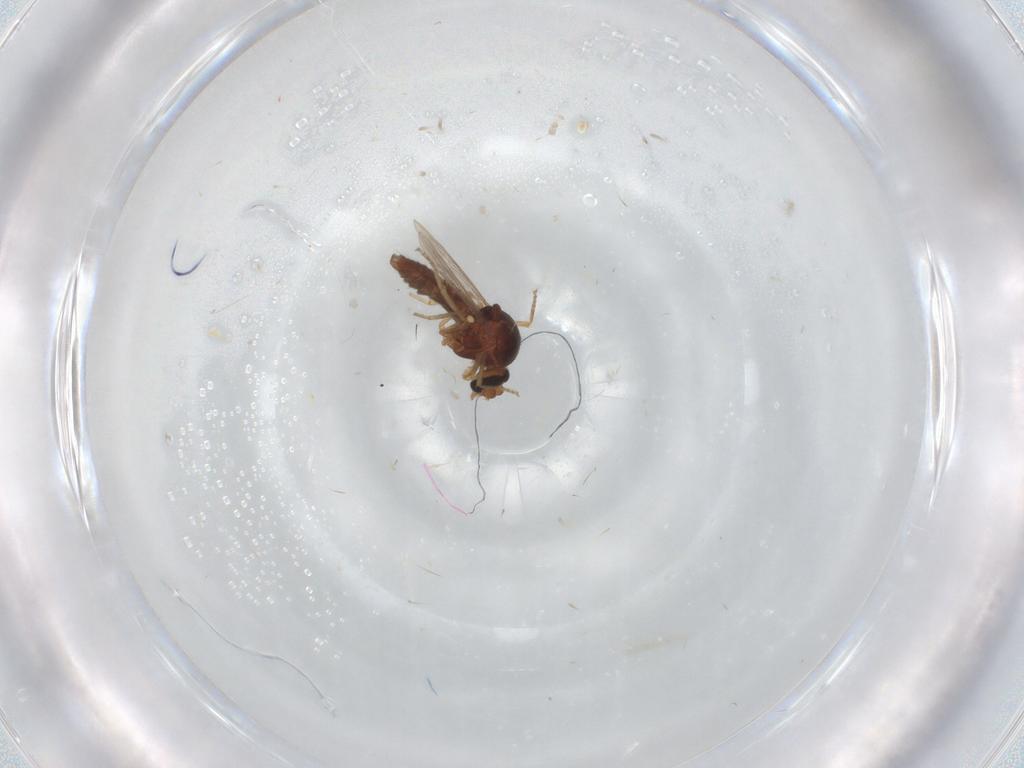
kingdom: Animalia
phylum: Arthropoda
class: Insecta
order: Diptera
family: Limoniidae
